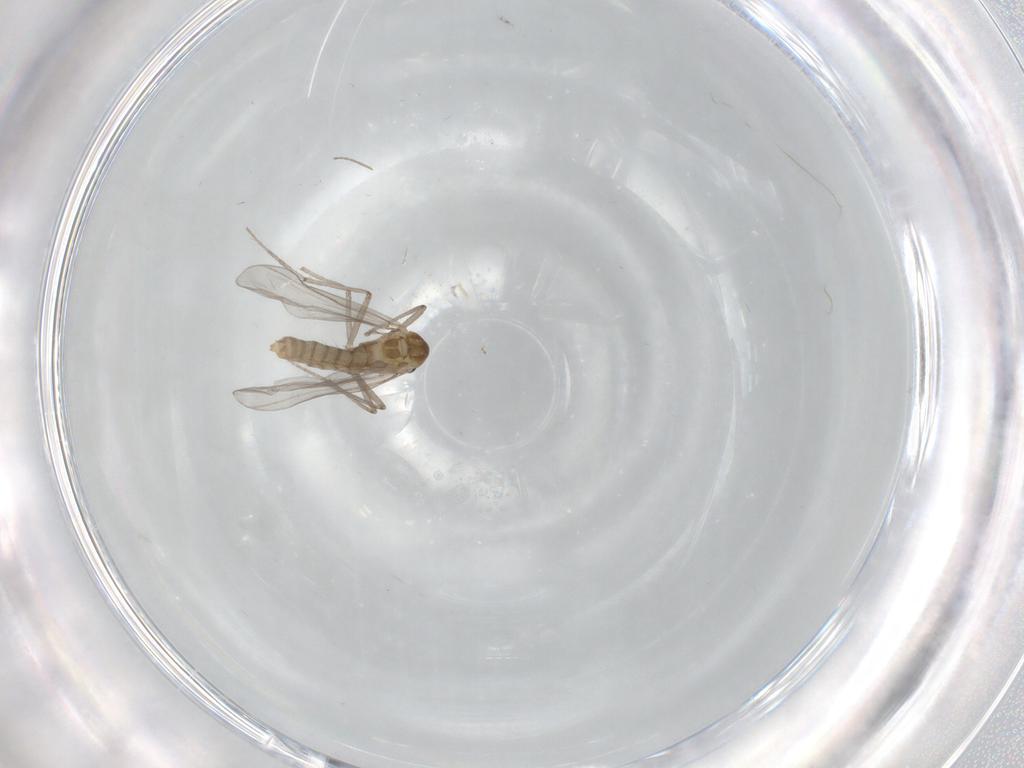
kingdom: Animalia
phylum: Arthropoda
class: Insecta
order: Diptera
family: Chironomidae
